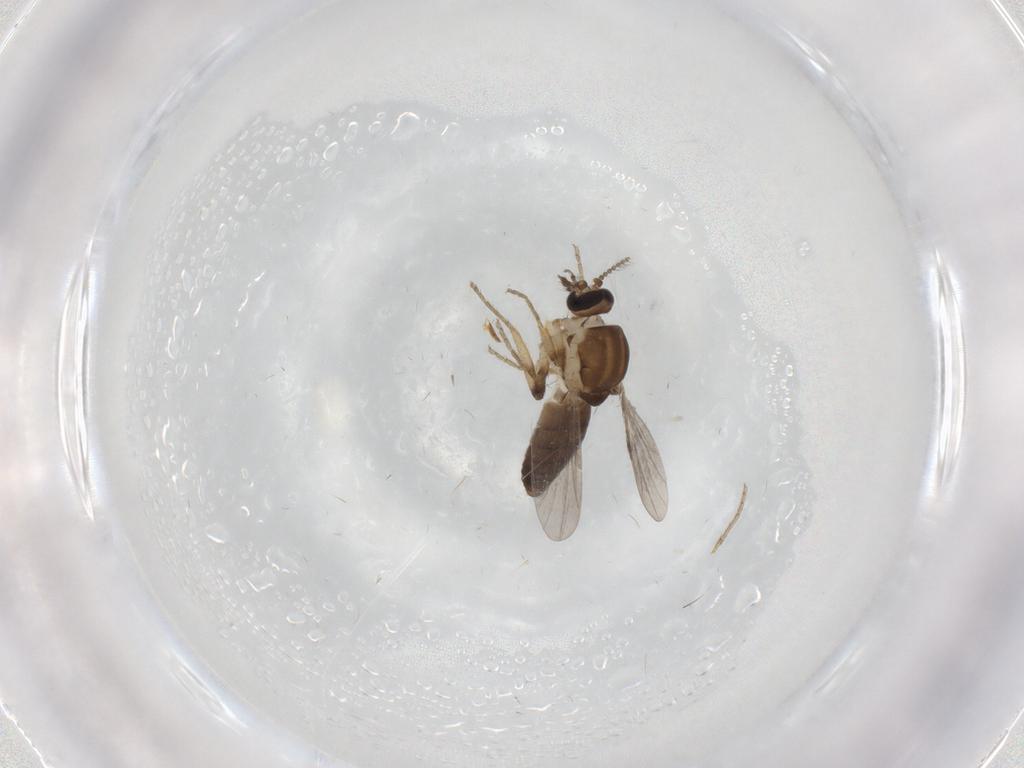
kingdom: Animalia
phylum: Arthropoda
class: Insecta
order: Diptera
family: Ceratopogonidae
